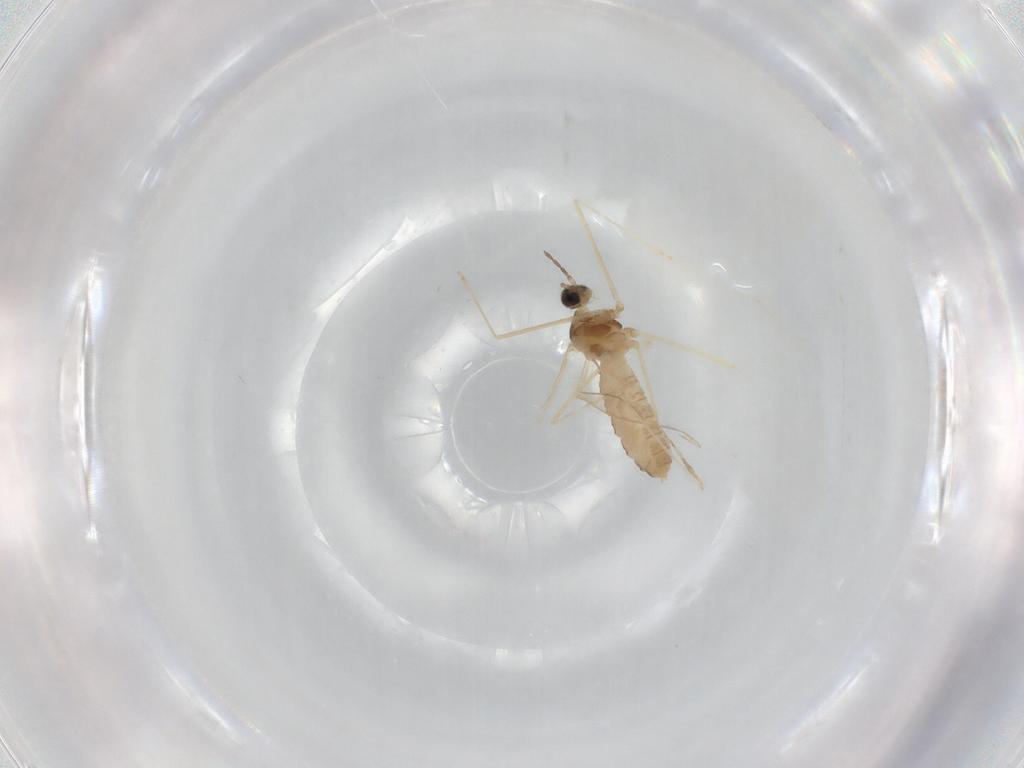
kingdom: Animalia
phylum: Arthropoda
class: Insecta
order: Diptera
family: Cecidomyiidae
